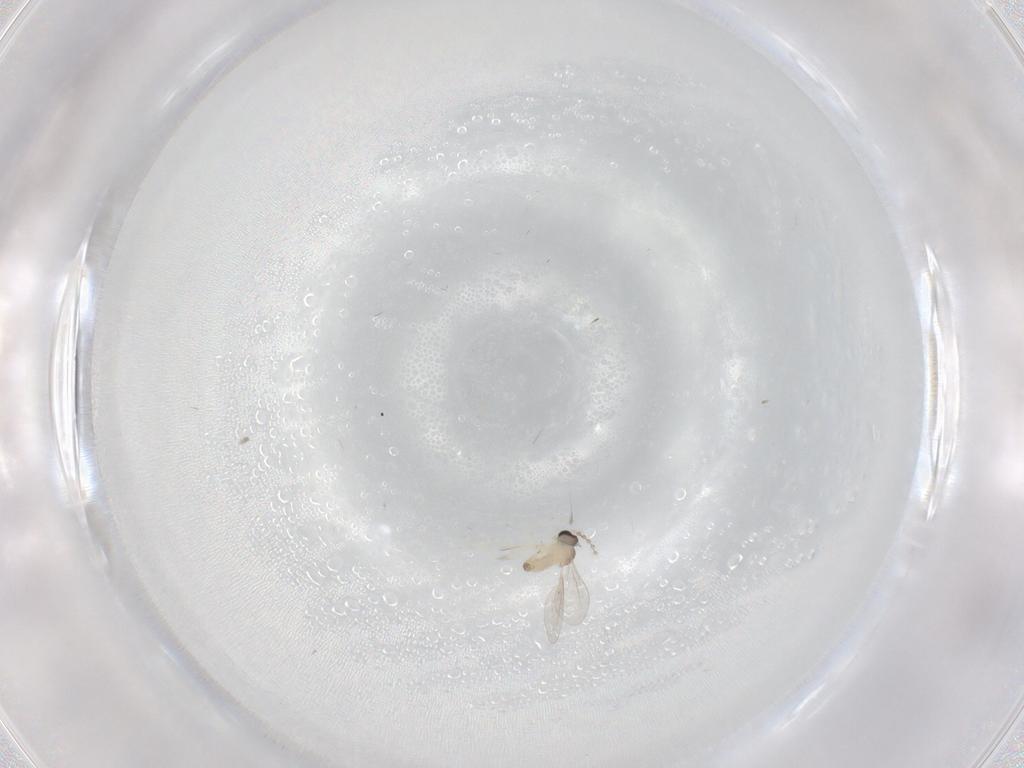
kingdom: Animalia
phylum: Arthropoda
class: Insecta
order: Diptera
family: Cecidomyiidae
